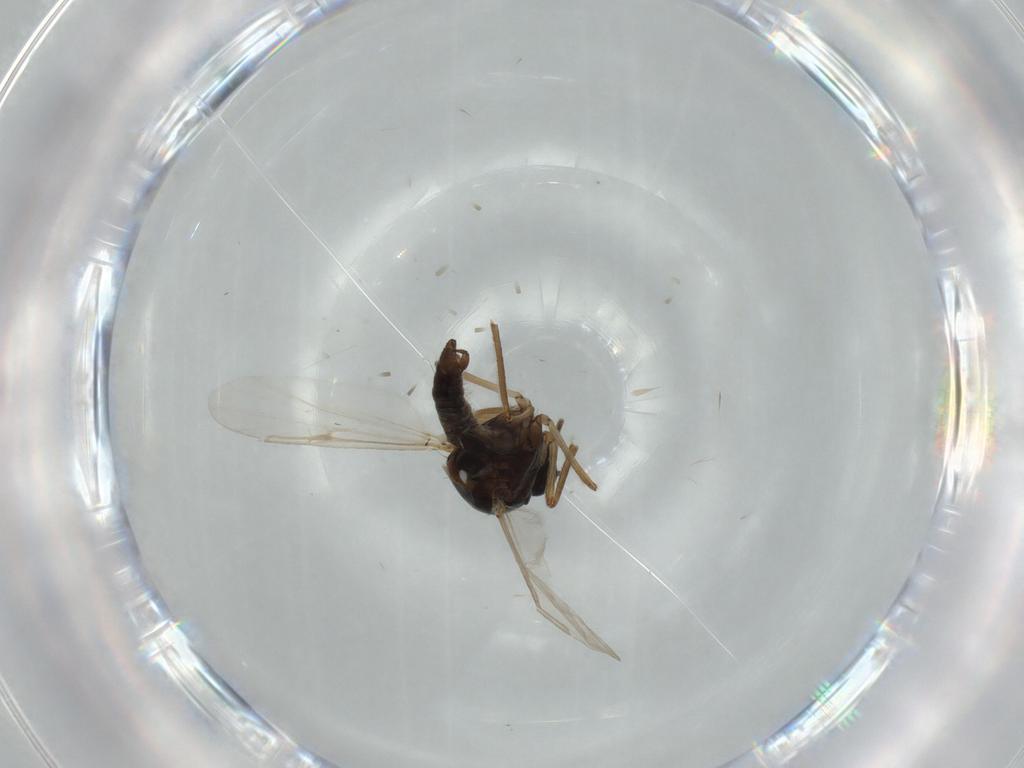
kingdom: Animalia
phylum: Arthropoda
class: Insecta
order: Diptera
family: Ceratopogonidae
